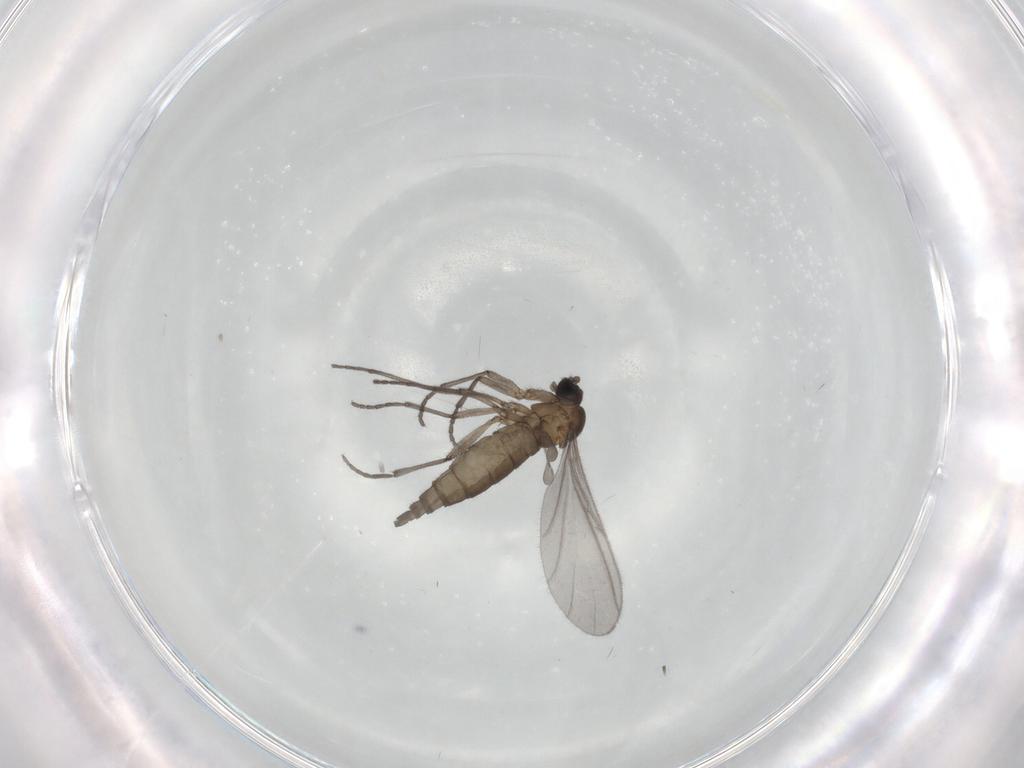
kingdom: Animalia
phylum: Arthropoda
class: Insecta
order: Diptera
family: Sciaridae
